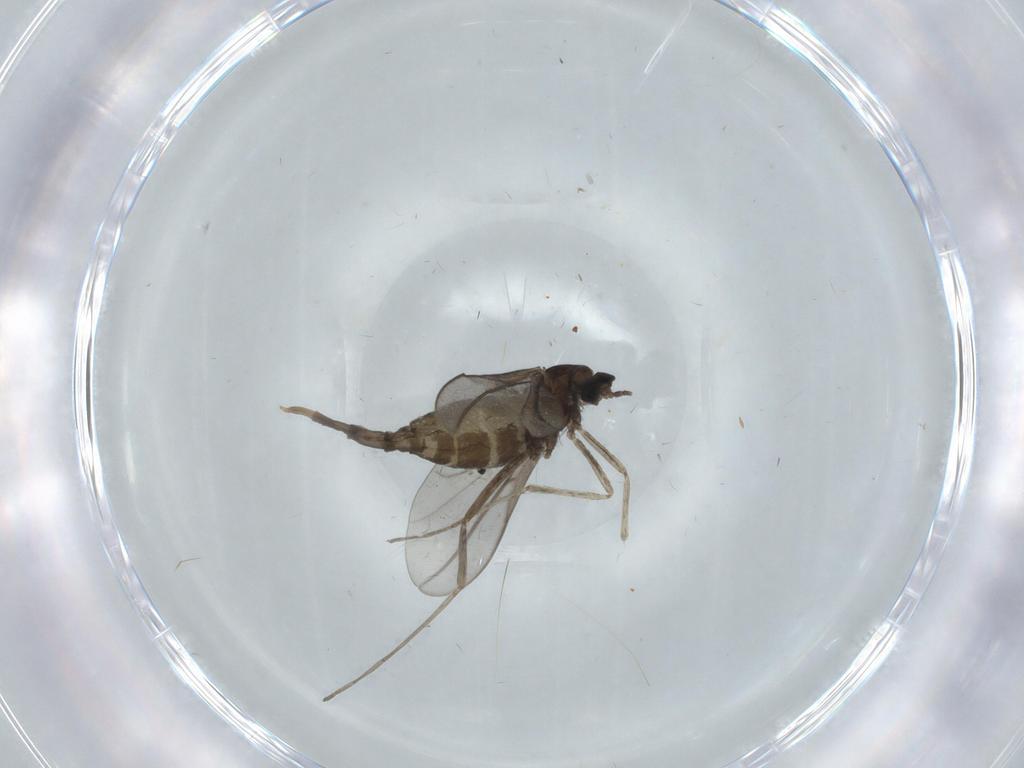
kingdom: Animalia
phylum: Arthropoda
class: Insecta
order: Diptera
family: Cecidomyiidae
